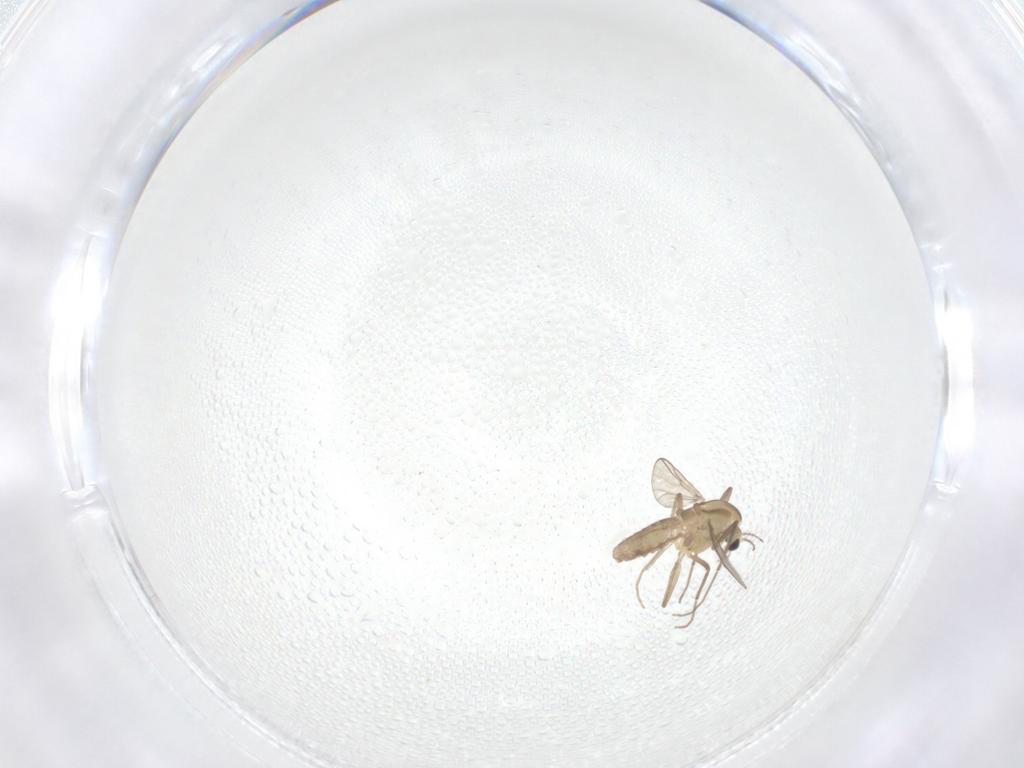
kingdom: Animalia
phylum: Arthropoda
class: Insecta
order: Diptera
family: Chironomidae
